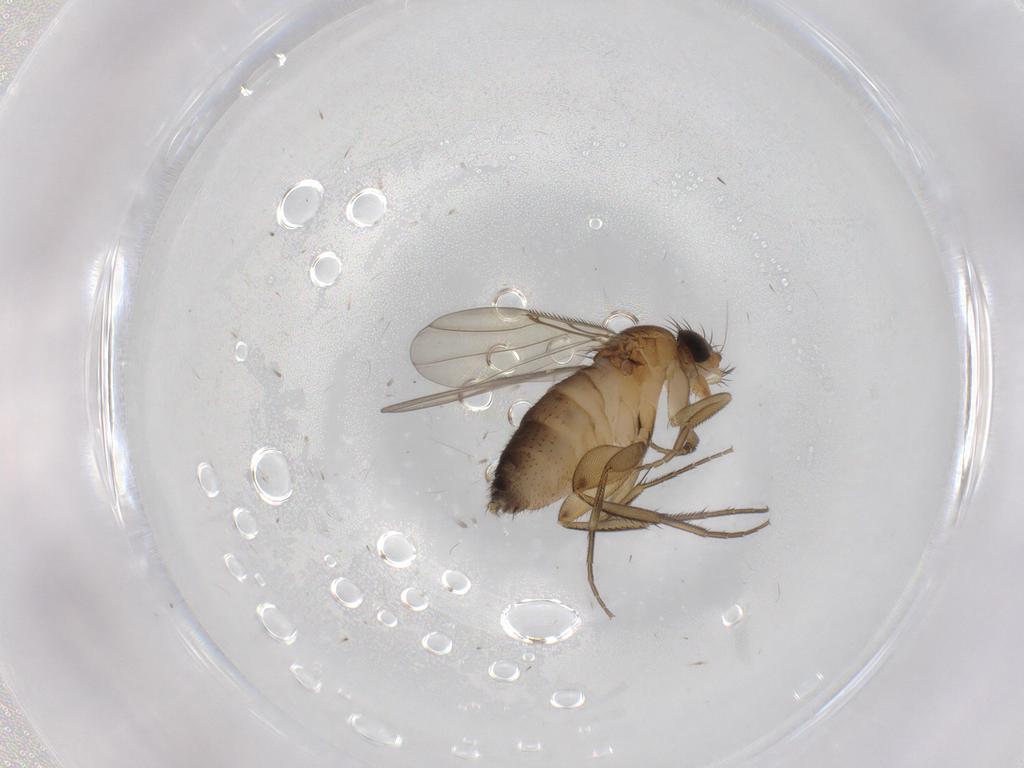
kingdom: Animalia
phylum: Arthropoda
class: Insecta
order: Diptera
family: Phoridae
